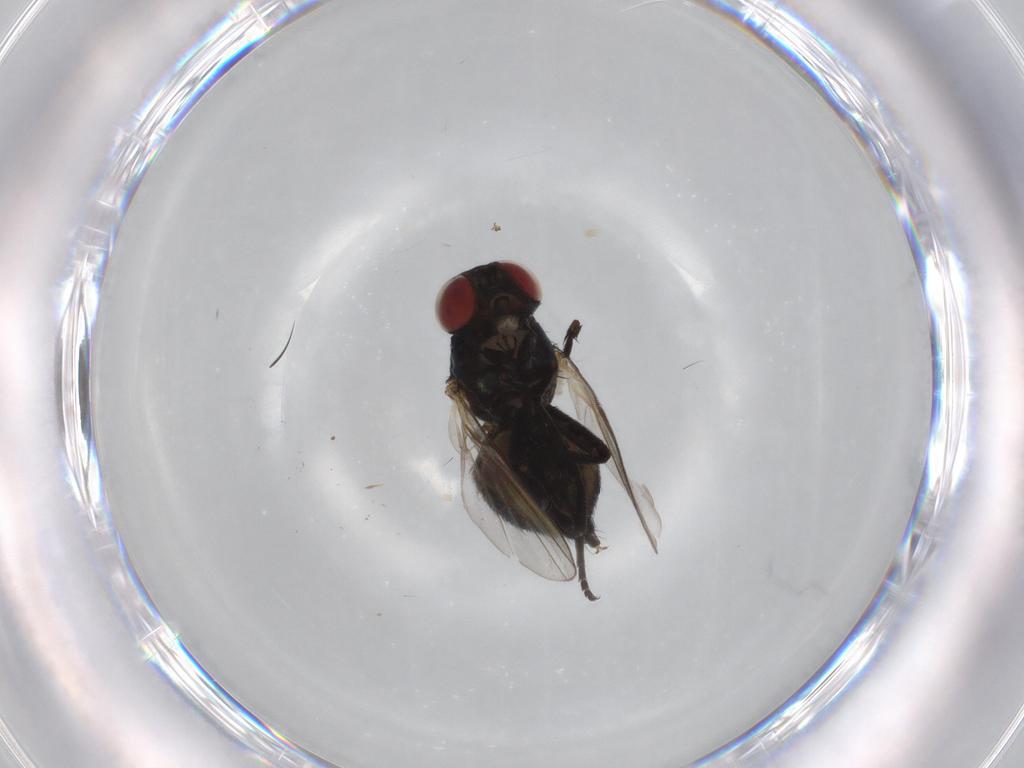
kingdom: Animalia
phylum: Arthropoda
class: Insecta
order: Diptera
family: Agromyzidae
